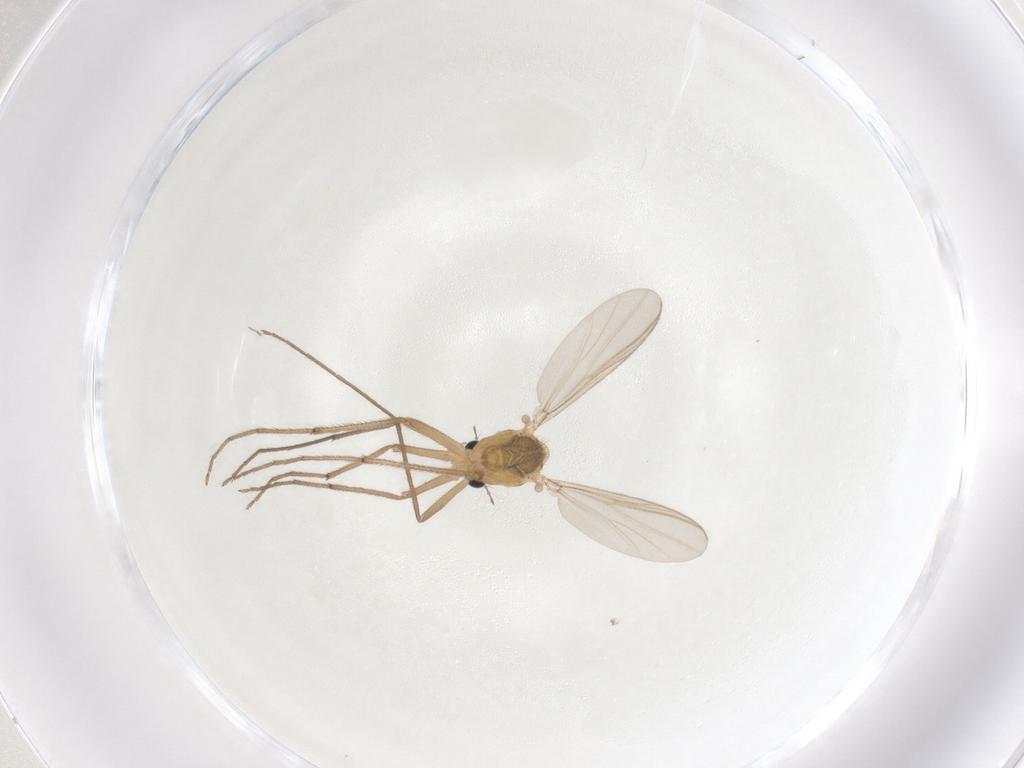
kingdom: Animalia
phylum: Arthropoda
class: Insecta
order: Diptera
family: Chironomidae
